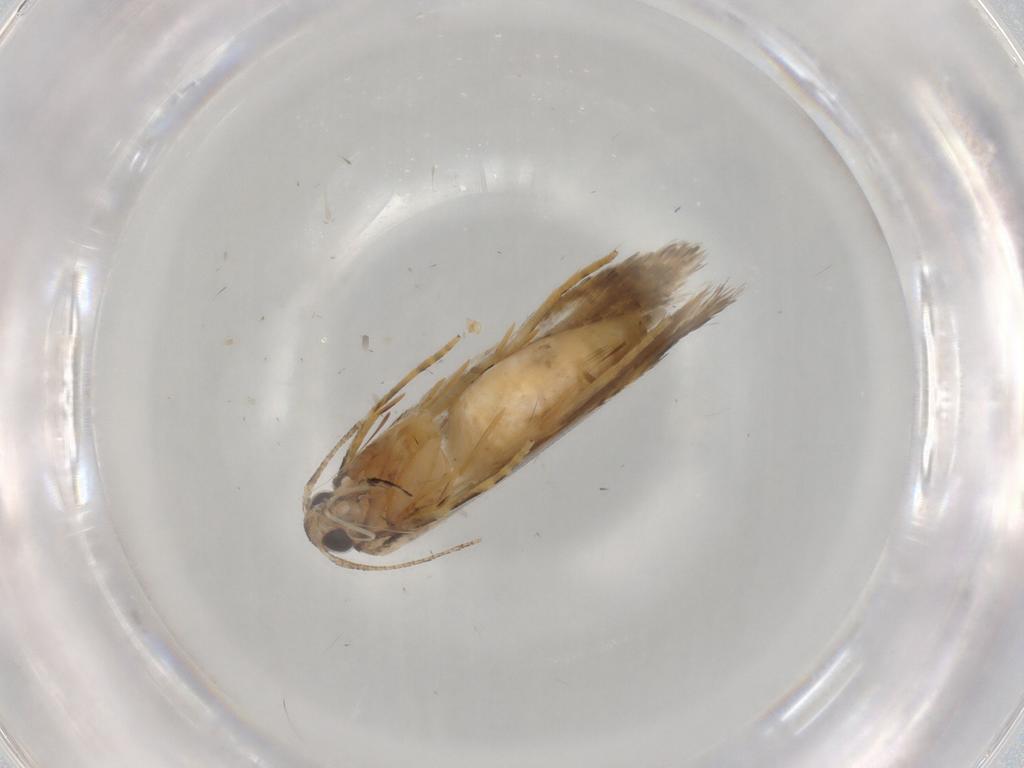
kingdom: Animalia
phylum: Arthropoda
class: Insecta
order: Lepidoptera
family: Autostichidae
